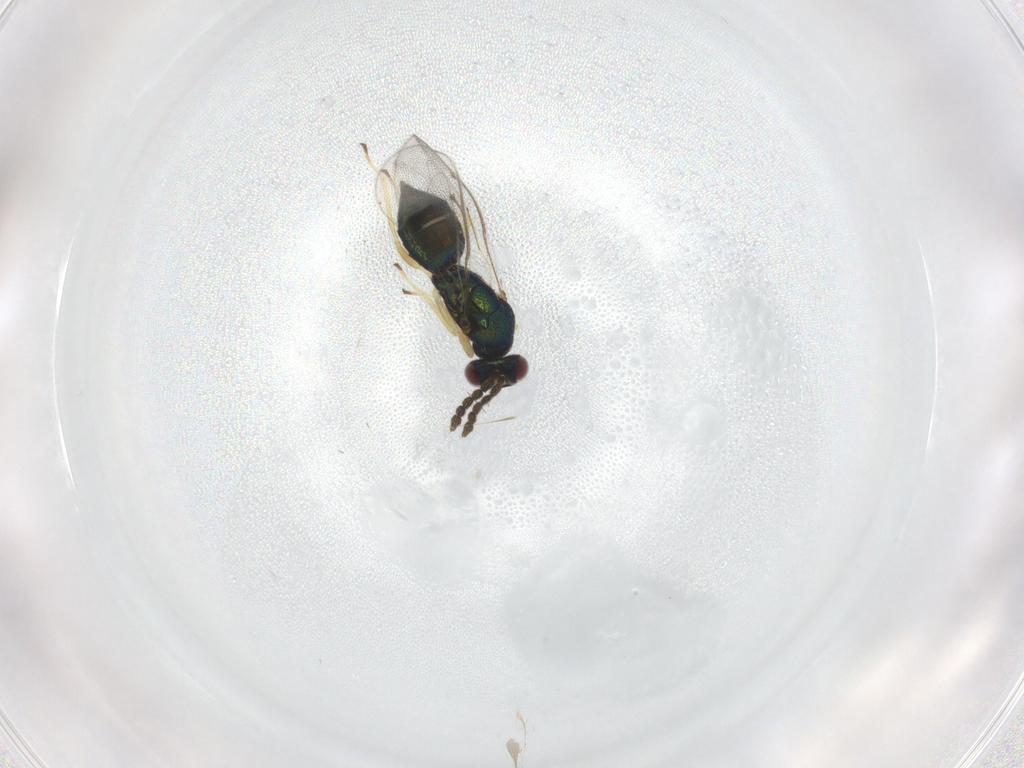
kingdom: Animalia
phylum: Arthropoda
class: Insecta
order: Hymenoptera
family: Eulophidae
